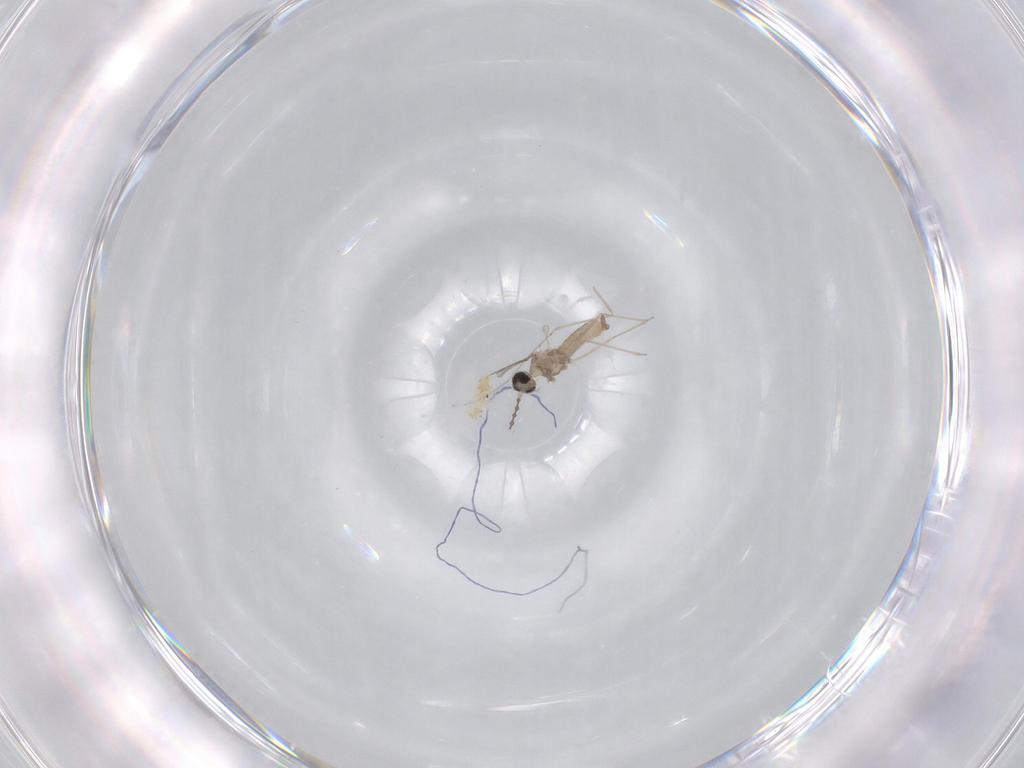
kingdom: Animalia
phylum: Arthropoda
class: Insecta
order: Diptera
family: Cecidomyiidae
